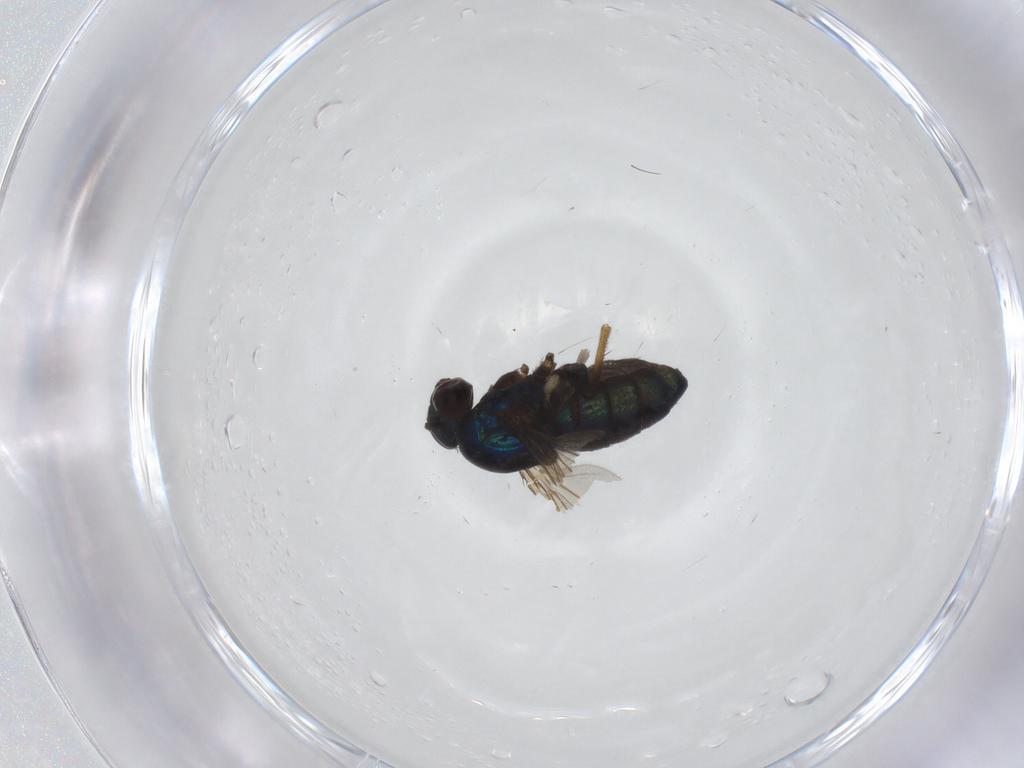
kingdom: Animalia
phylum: Arthropoda
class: Insecta
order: Diptera
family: Dolichopodidae
